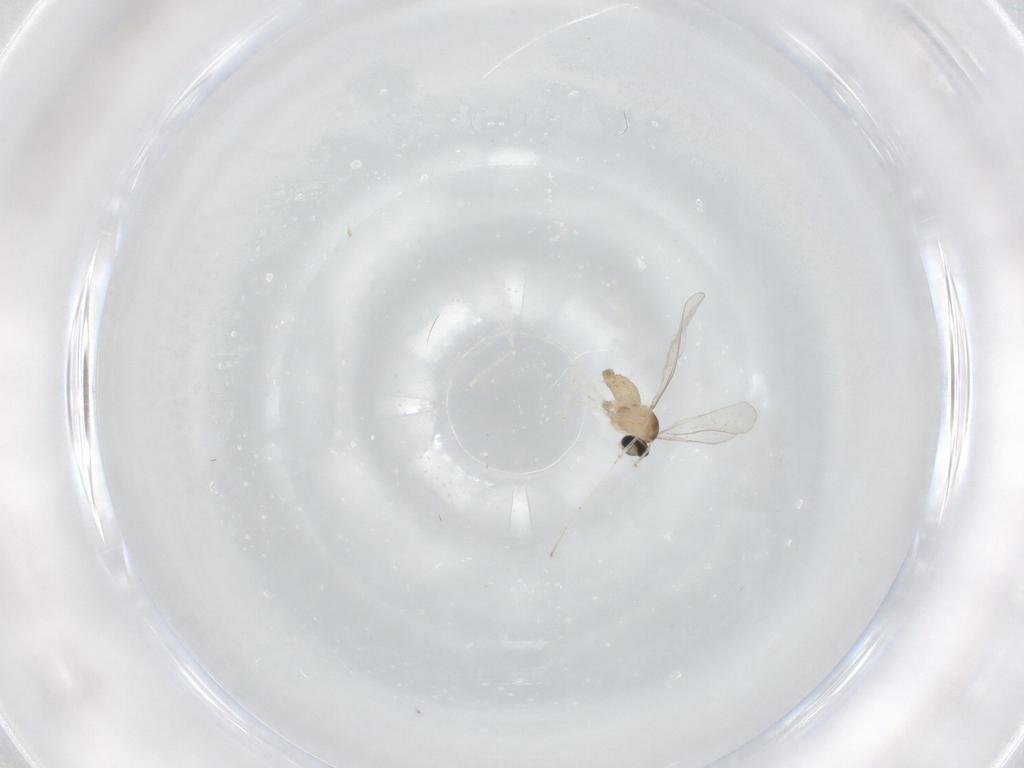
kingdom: Animalia
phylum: Arthropoda
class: Insecta
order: Diptera
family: Cecidomyiidae
